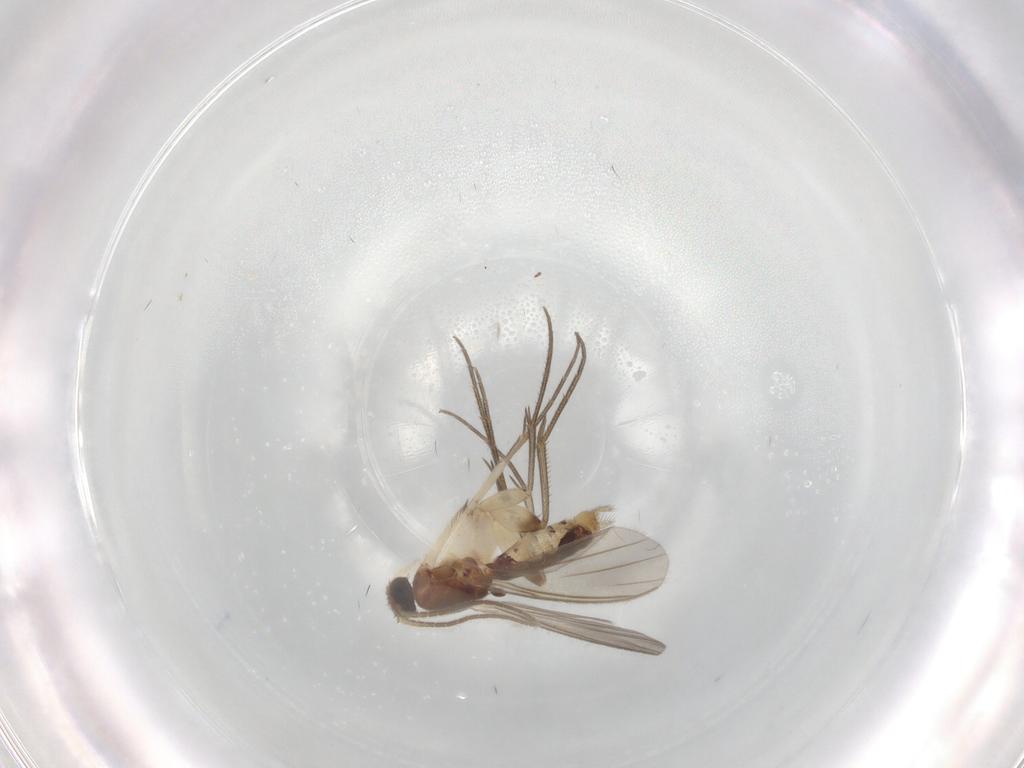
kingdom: Animalia
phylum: Arthropoda
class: Insecta
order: Diptera
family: Mycetophilidae
